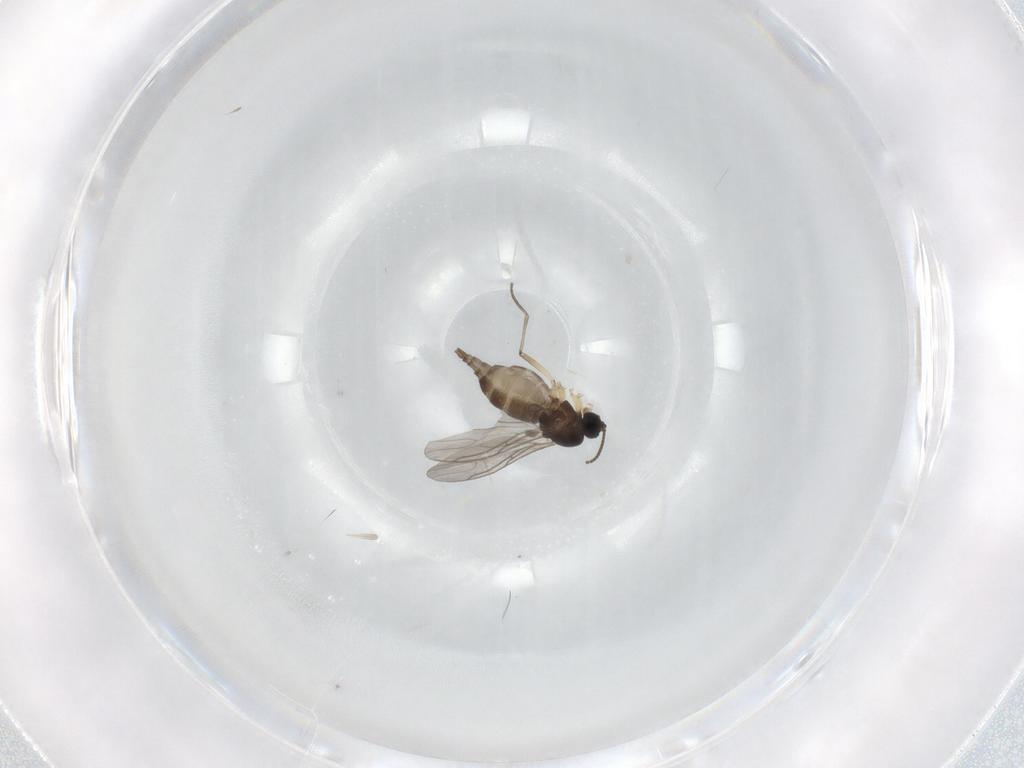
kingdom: Animalia
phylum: Arthropoda
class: Insecta
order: Diptera
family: Sciaridae
